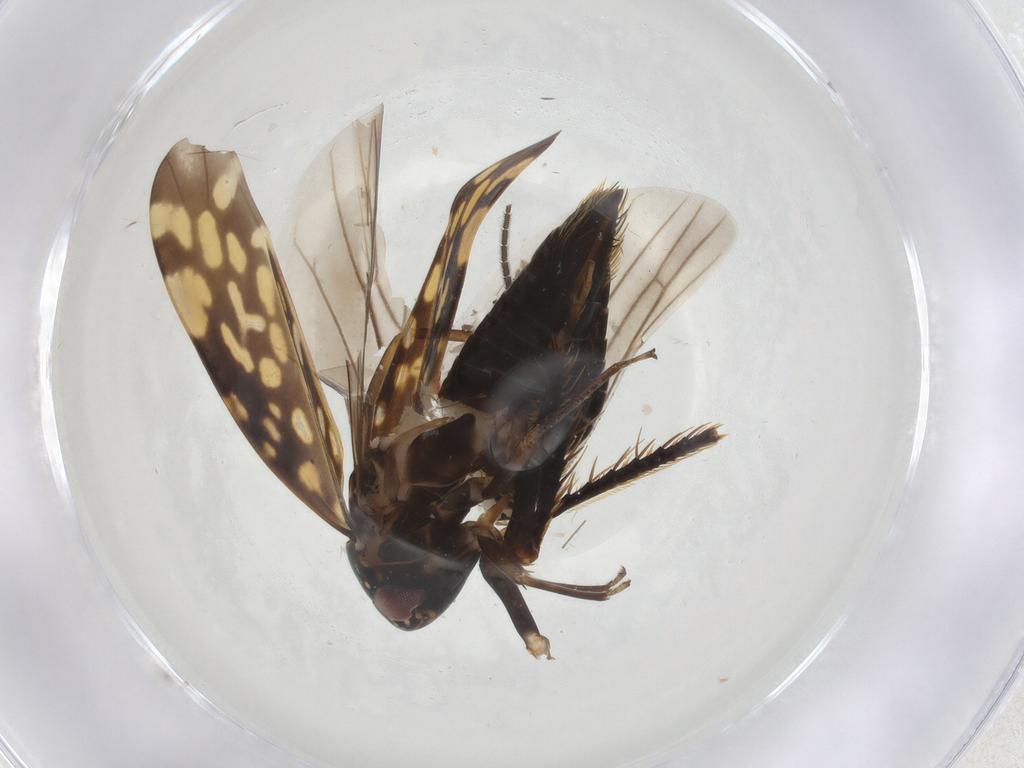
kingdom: Animalia
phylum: Arthropoda
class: Insecta
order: Hemiptera
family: Cicadellidae
